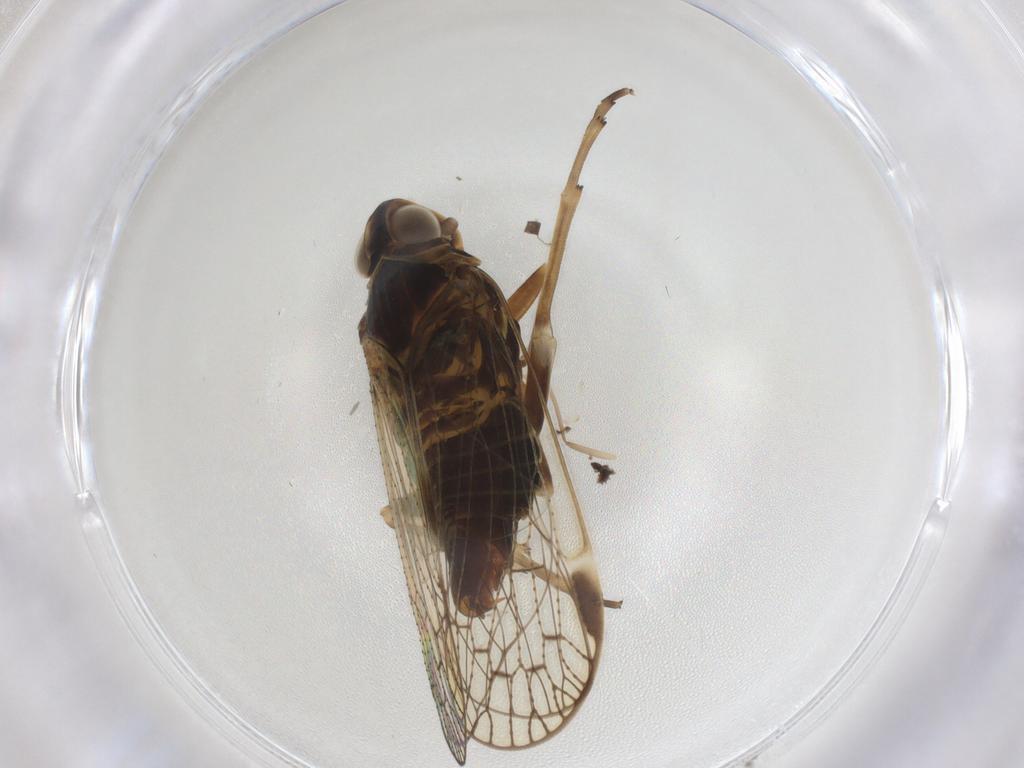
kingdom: Animalia
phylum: Arthropoda
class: Insecta
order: Hemiptera
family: Cixiidae
